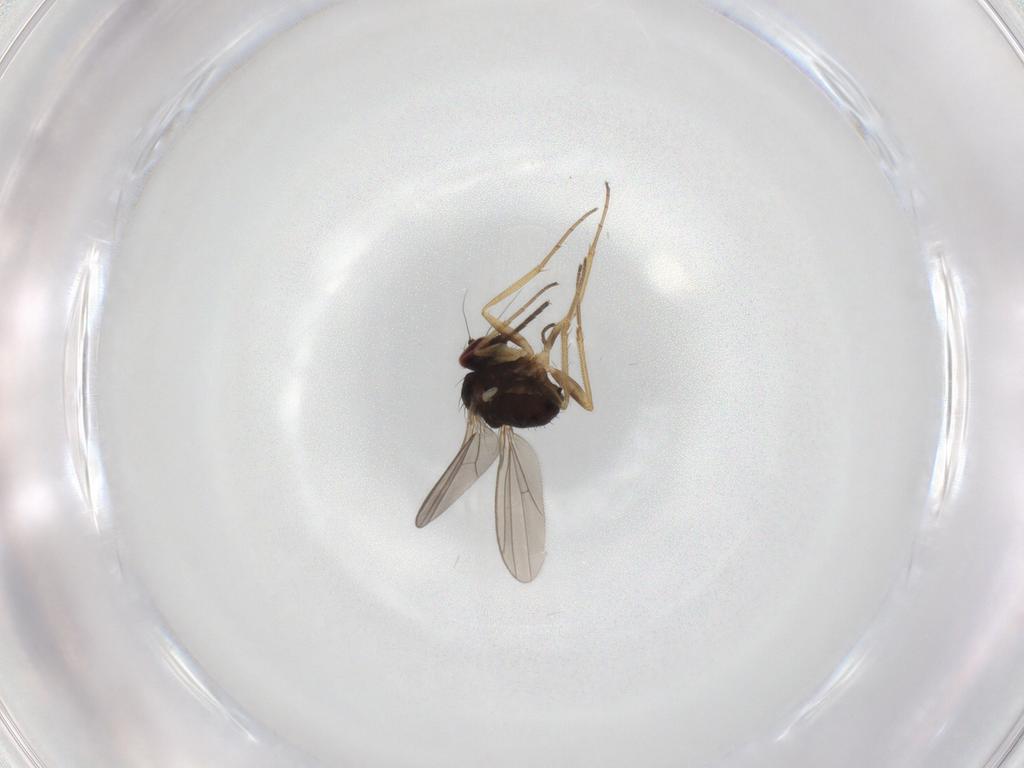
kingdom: Animalia
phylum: Arthropoda
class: Insecta
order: Diptera
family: Dolichopodidae
